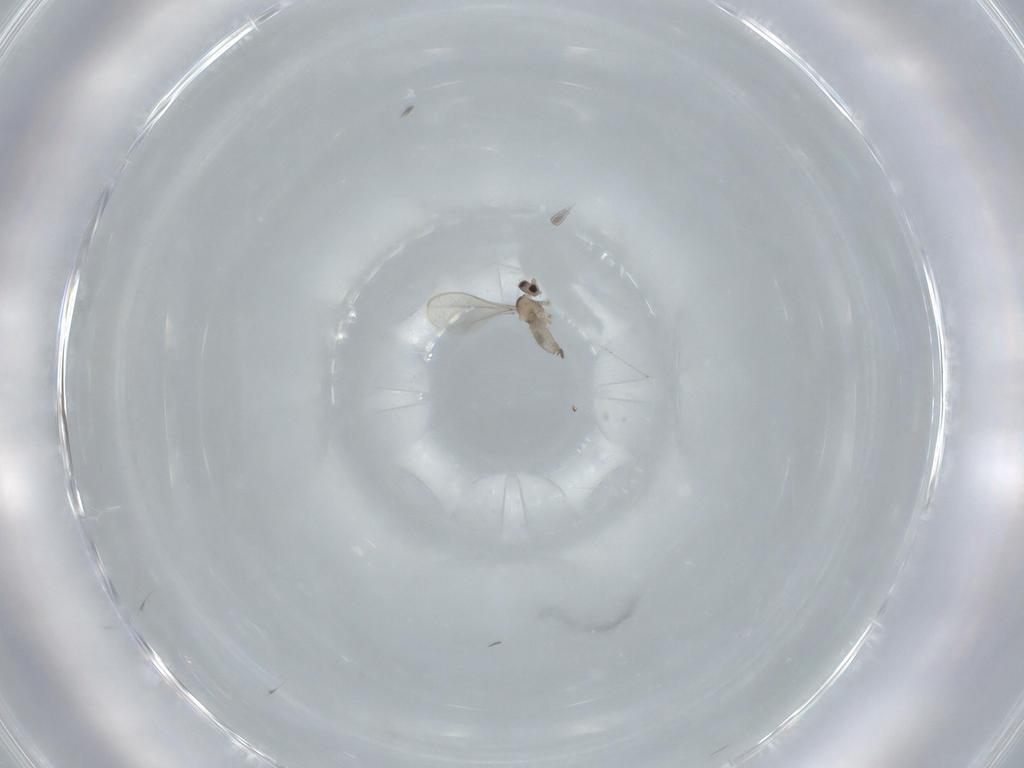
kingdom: Animalia
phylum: Arthropoda
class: Insecta
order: Diptera
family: Cecidomyiidae
